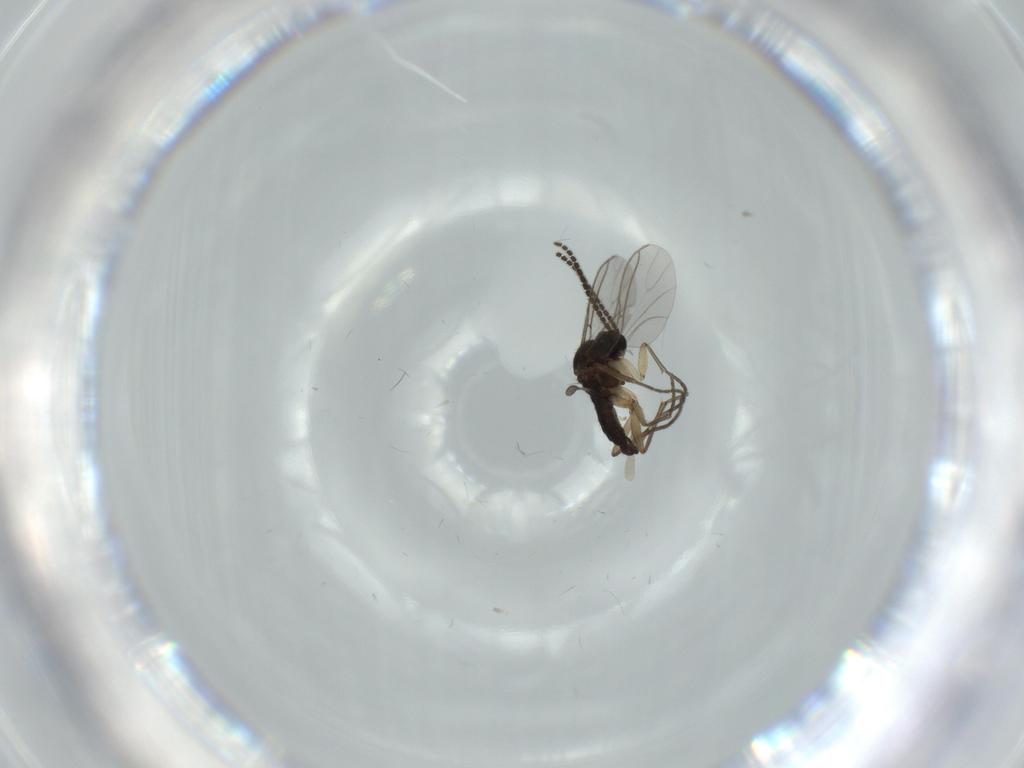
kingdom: Animalia
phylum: Arthropoda
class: Insecta
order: Diptera
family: Sciaridae
